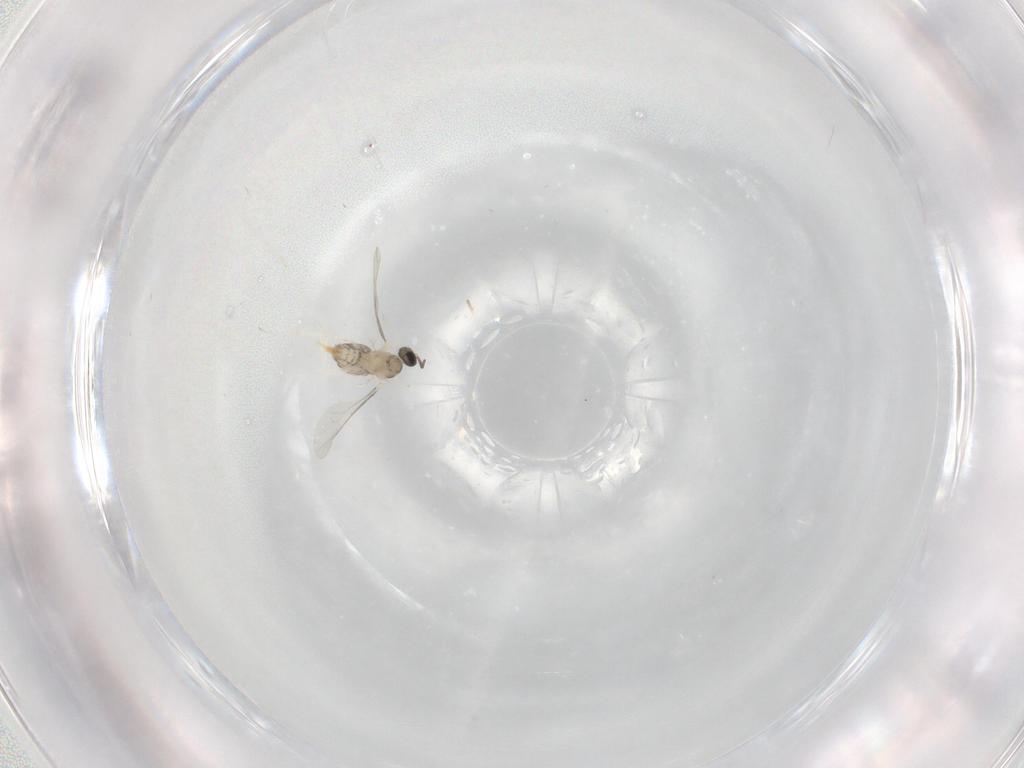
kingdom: Animalia
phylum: Arthropoda
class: Insecta
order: Diptera
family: Cecidomyiidae
